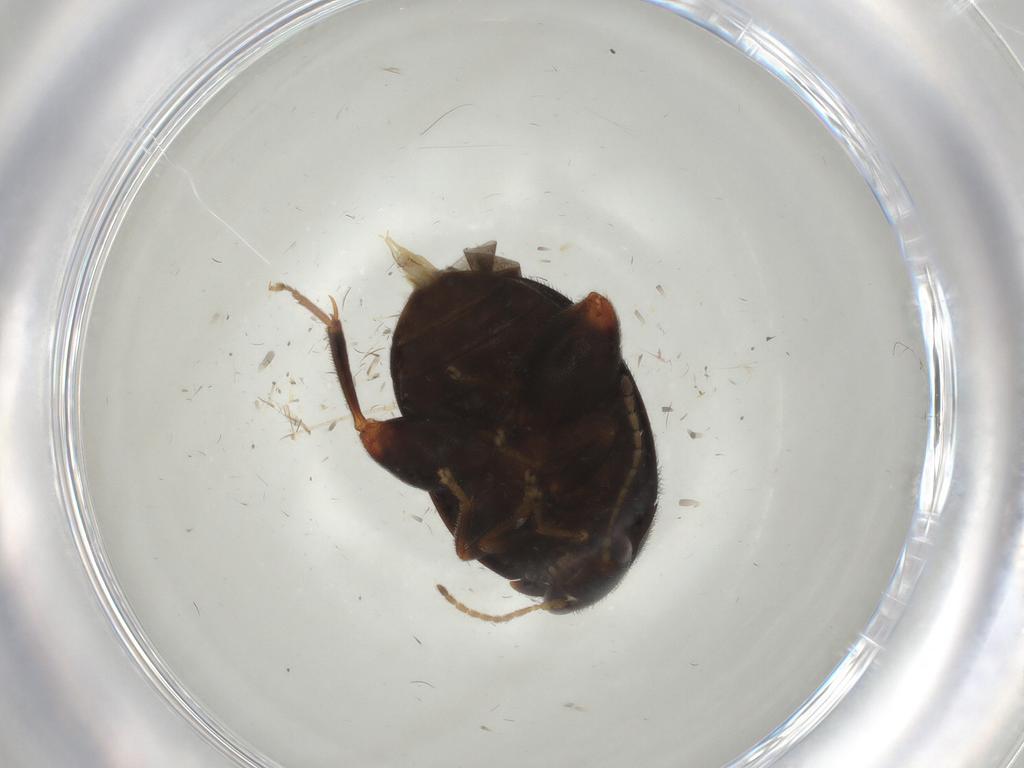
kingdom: Animalia
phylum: Arthropoda
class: Insecta
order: Coleoptera
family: Scirtidae
